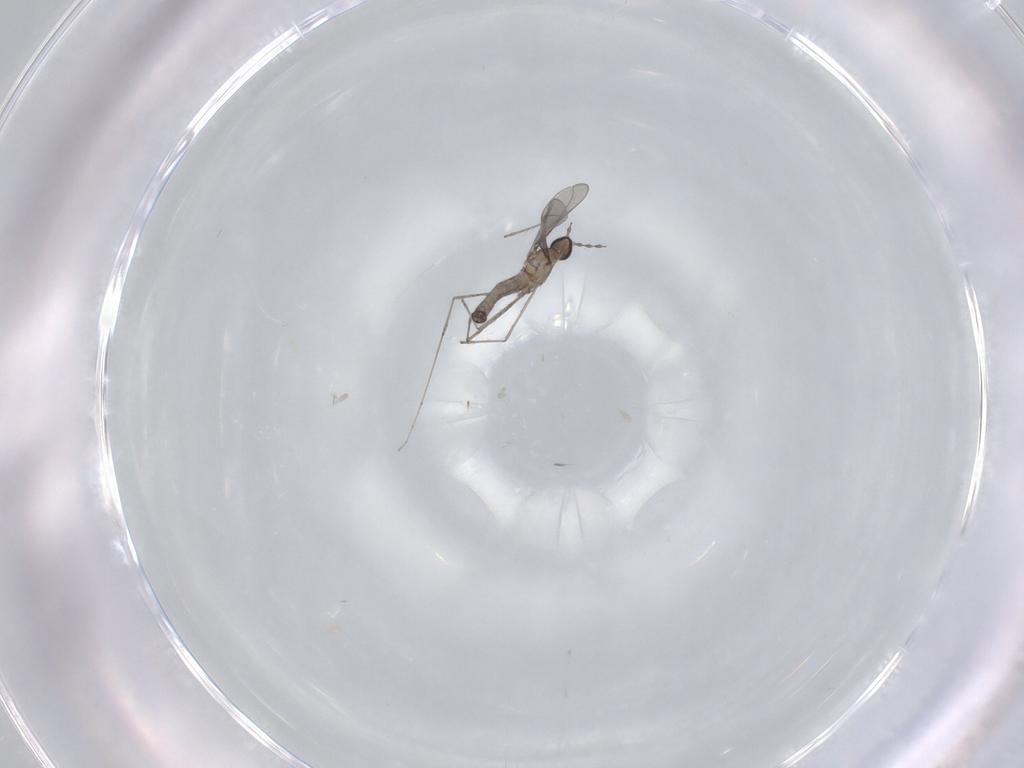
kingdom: Animalia
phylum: Arthropoda
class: Insecta
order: Diptera
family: Cecidomyiidae
